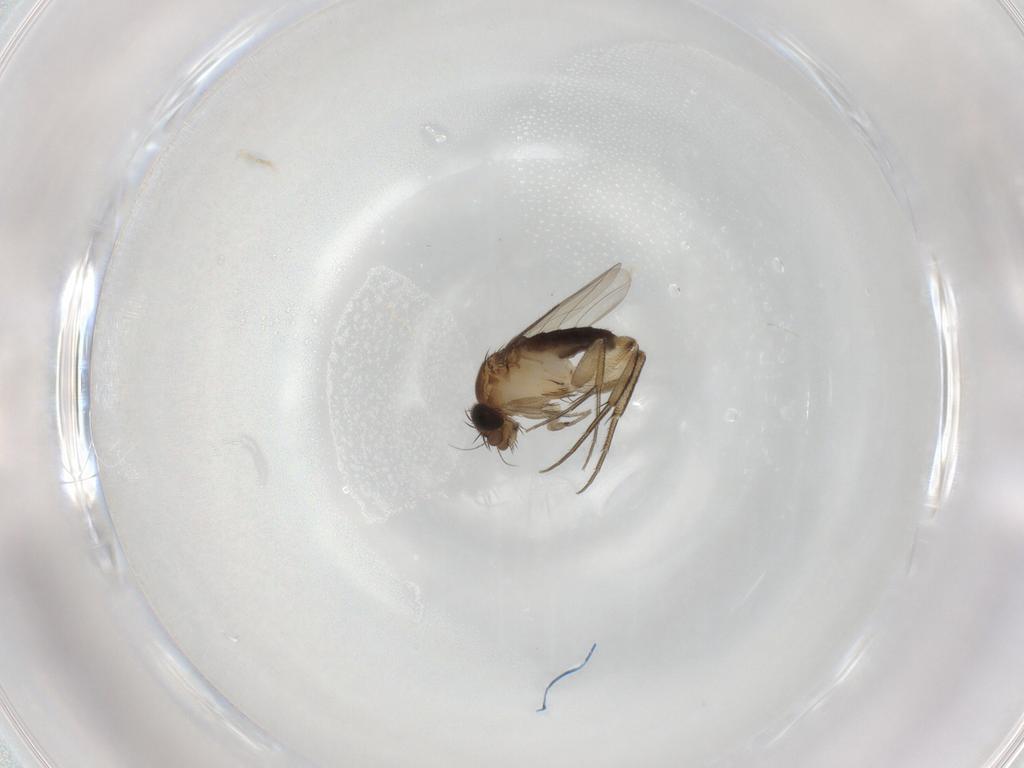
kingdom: Animalia
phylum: Arthropoda
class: Insecta
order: Diptera
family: Phoridae
